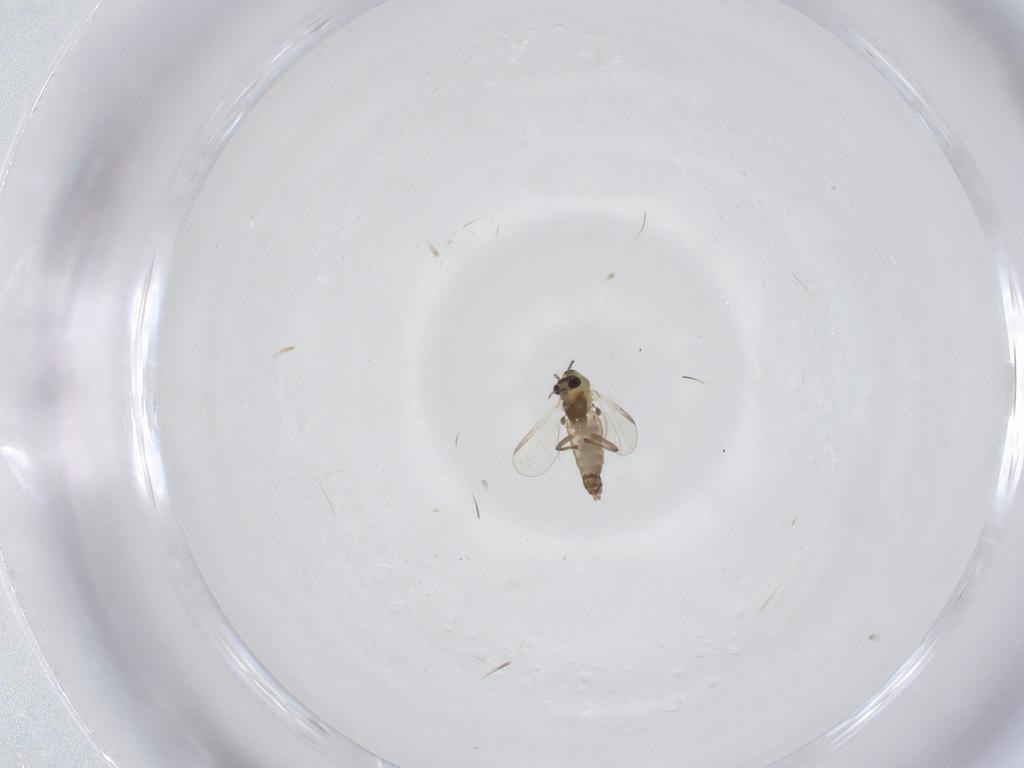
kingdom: Animalia
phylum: Arthropoda
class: Insecta
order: Diptera
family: Chironomidae
